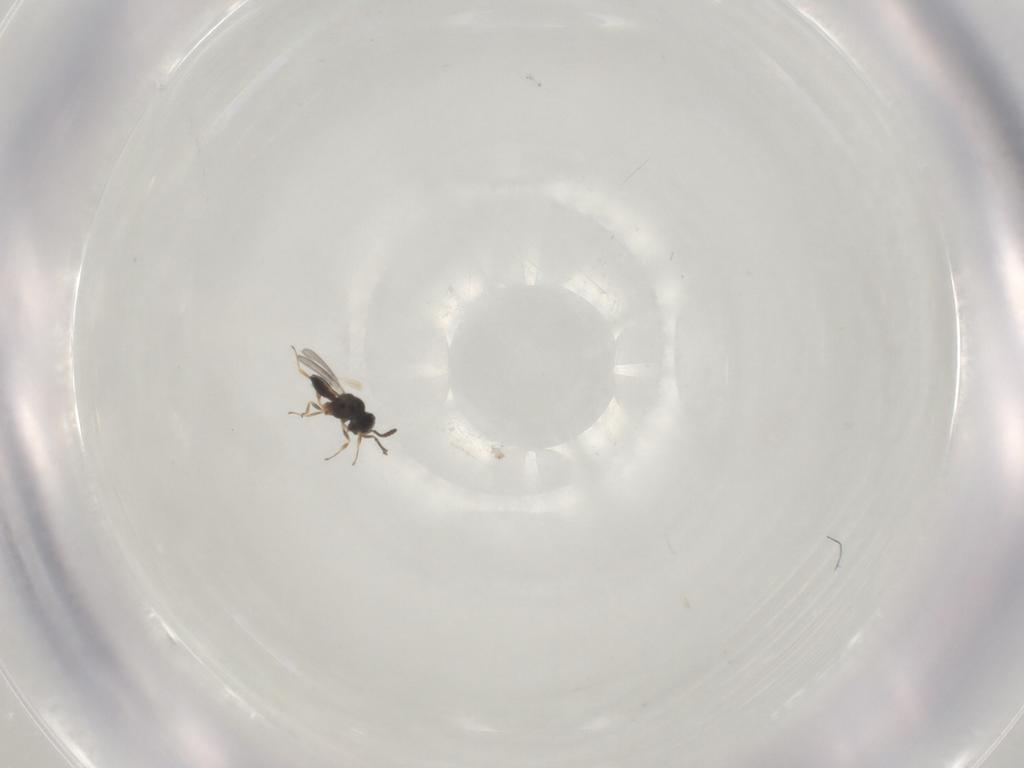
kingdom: Animalia
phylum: Arthropoda
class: Insecta
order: Hymenoptera
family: Scelionidae
